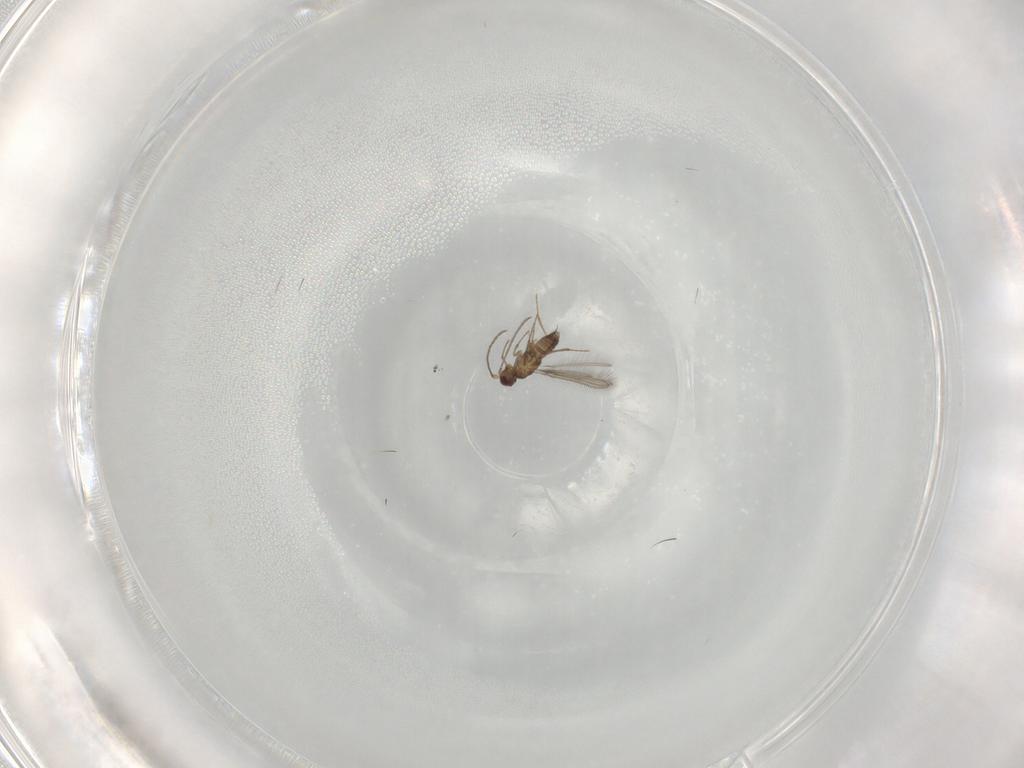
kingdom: Animalia
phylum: Arthropoda
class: Insecta
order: Hymenoptera
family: Mymaridae
